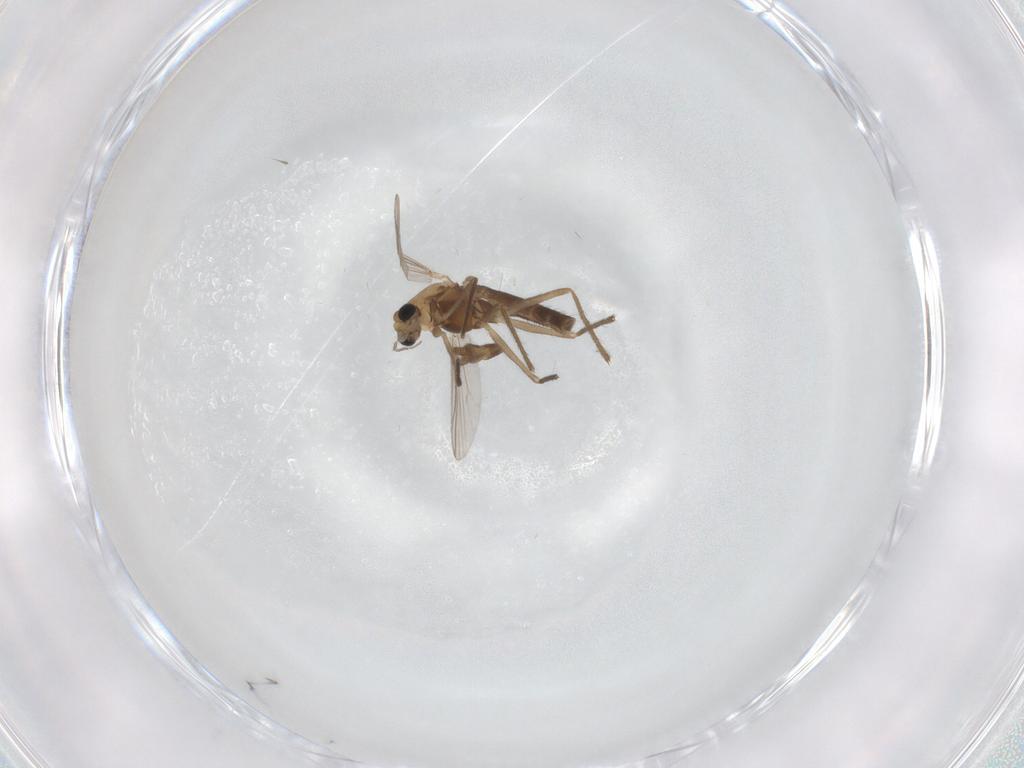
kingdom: Animalia
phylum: Arthropoda
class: Insecta
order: Diptera
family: Chironomidae
